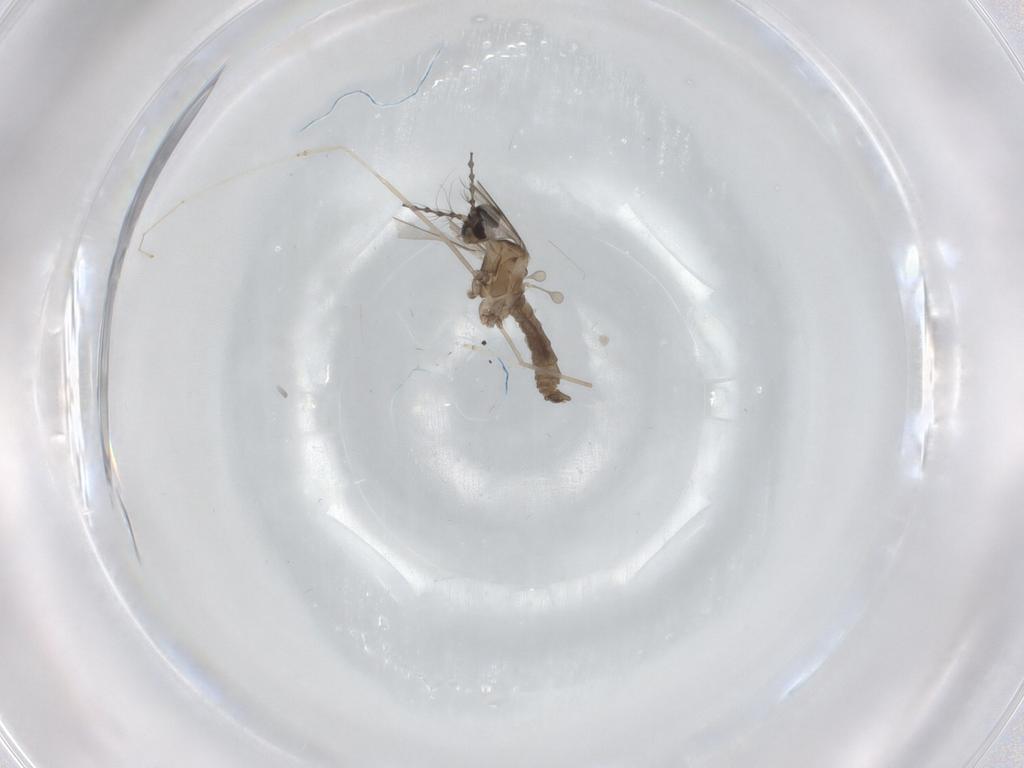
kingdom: Animalia
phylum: Arthropoda
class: Insecta
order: Diptera
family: Cecidomyiidae
